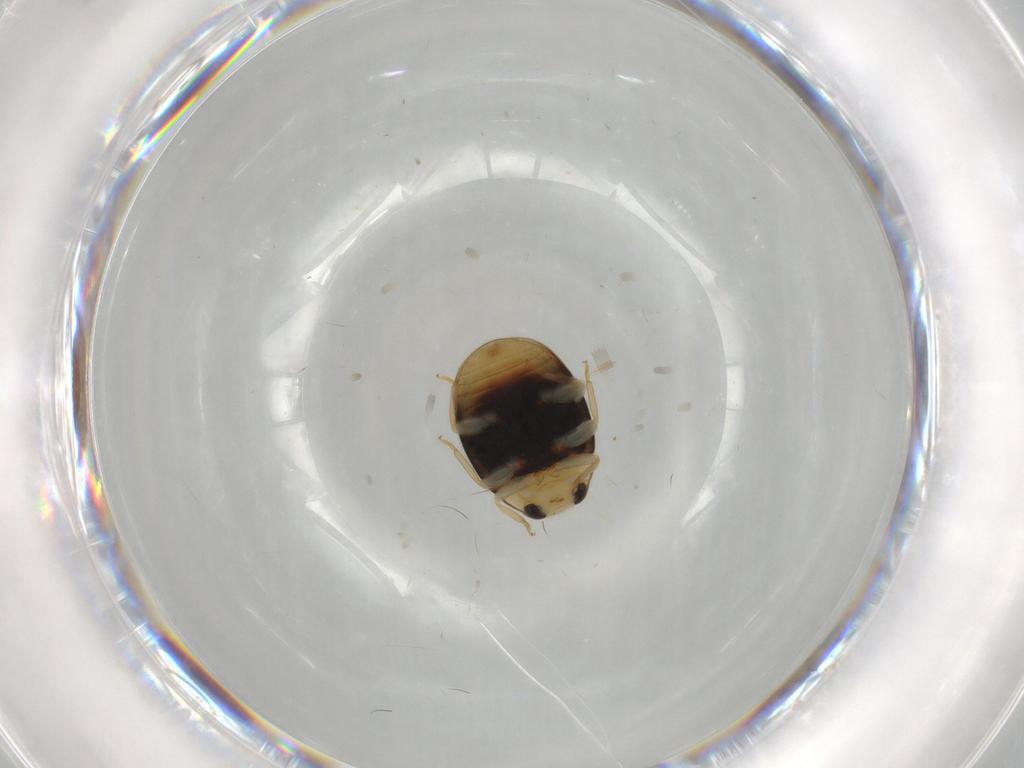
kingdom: Animalia
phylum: Arthropoda
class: Insecta
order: Coleoptera
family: Coccinellidae
